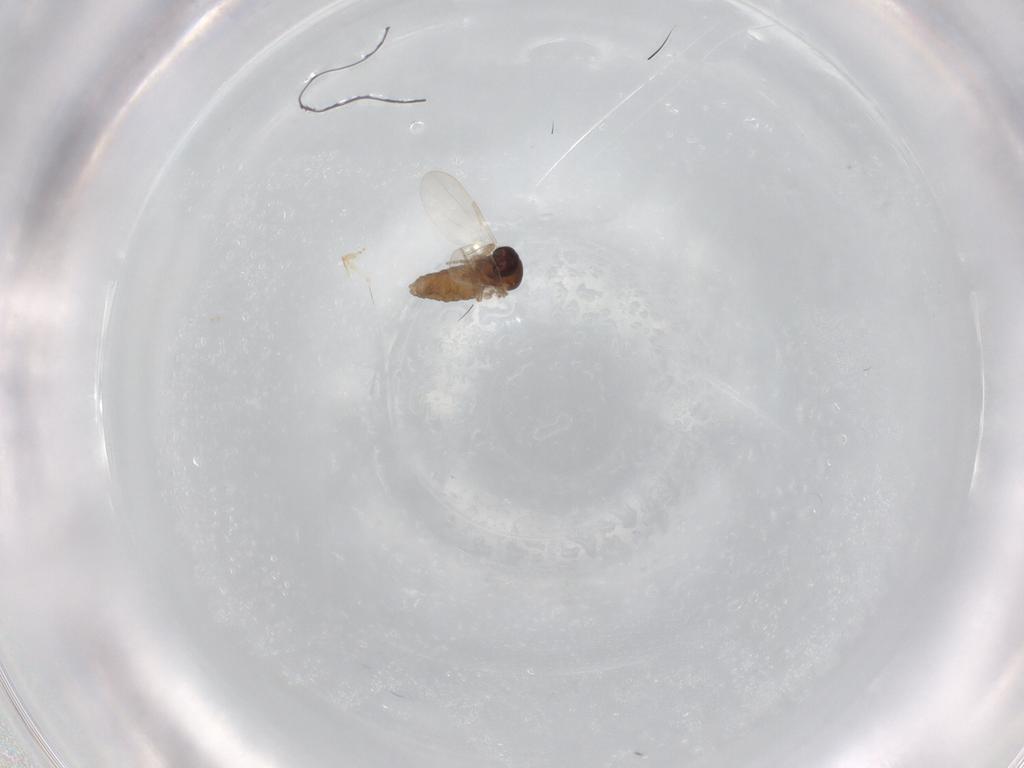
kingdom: Animalia
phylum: Arthropoda
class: Insecta
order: Diptera
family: Ceratopogonidae
